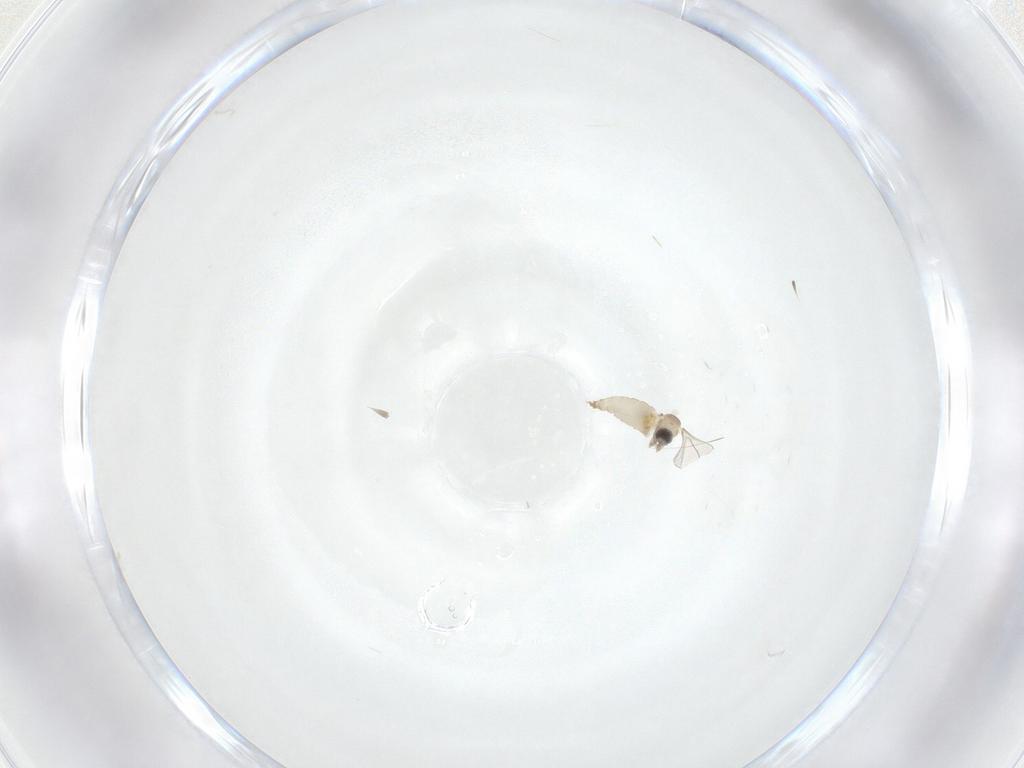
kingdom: Animalia
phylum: Arthropoda
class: Insecta
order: Diptera
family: Cecidomyiidae
